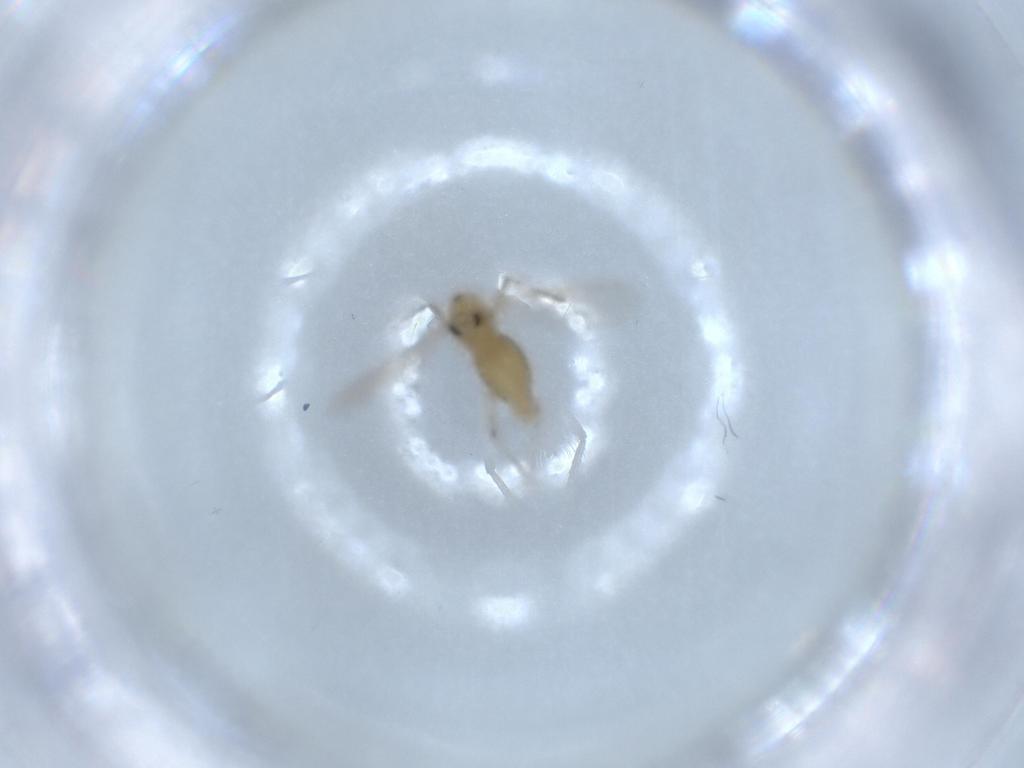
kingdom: Animalia
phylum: Arthropoda
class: Insecta
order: Diptera
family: Chironomidae
